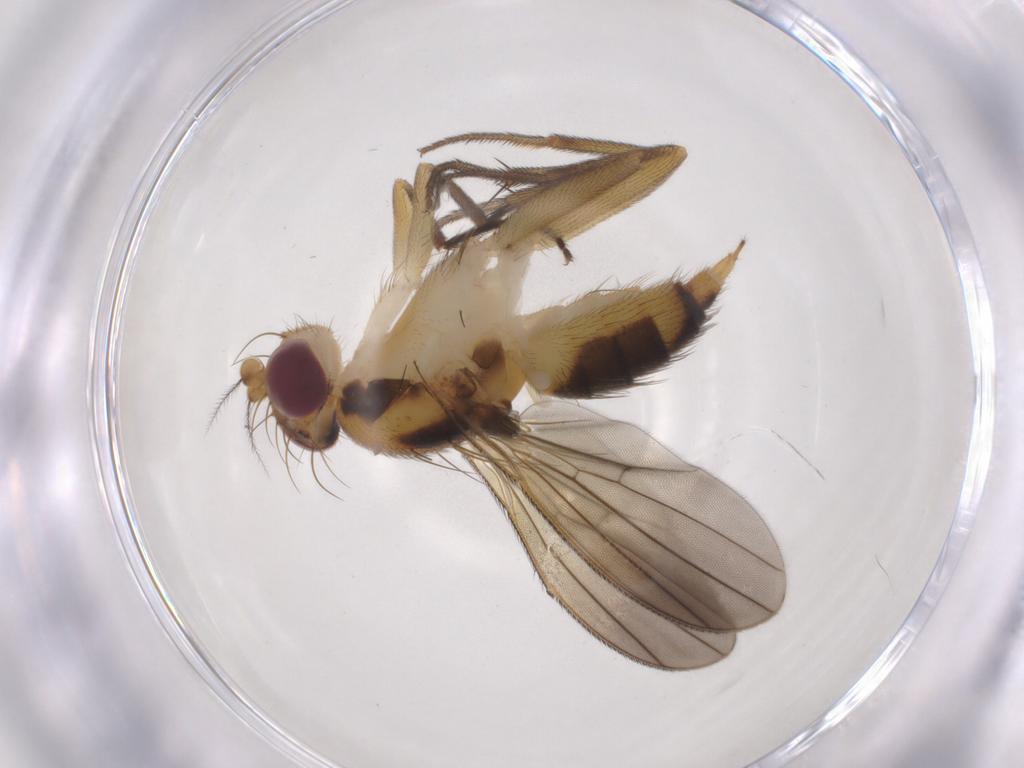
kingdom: Animalia
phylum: Arthropoda
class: Insecta
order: Diptera
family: Clusiidae
